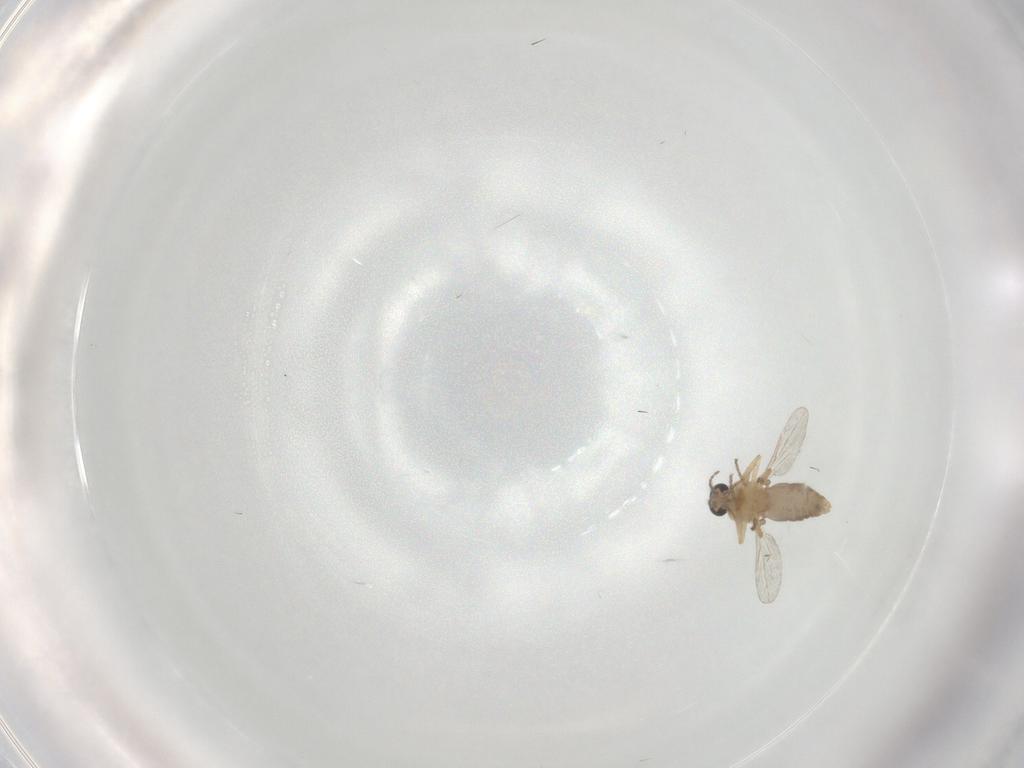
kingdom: Animalia
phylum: Arthropoda
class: Insecta
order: Diptera
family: Ceratopogonidae
